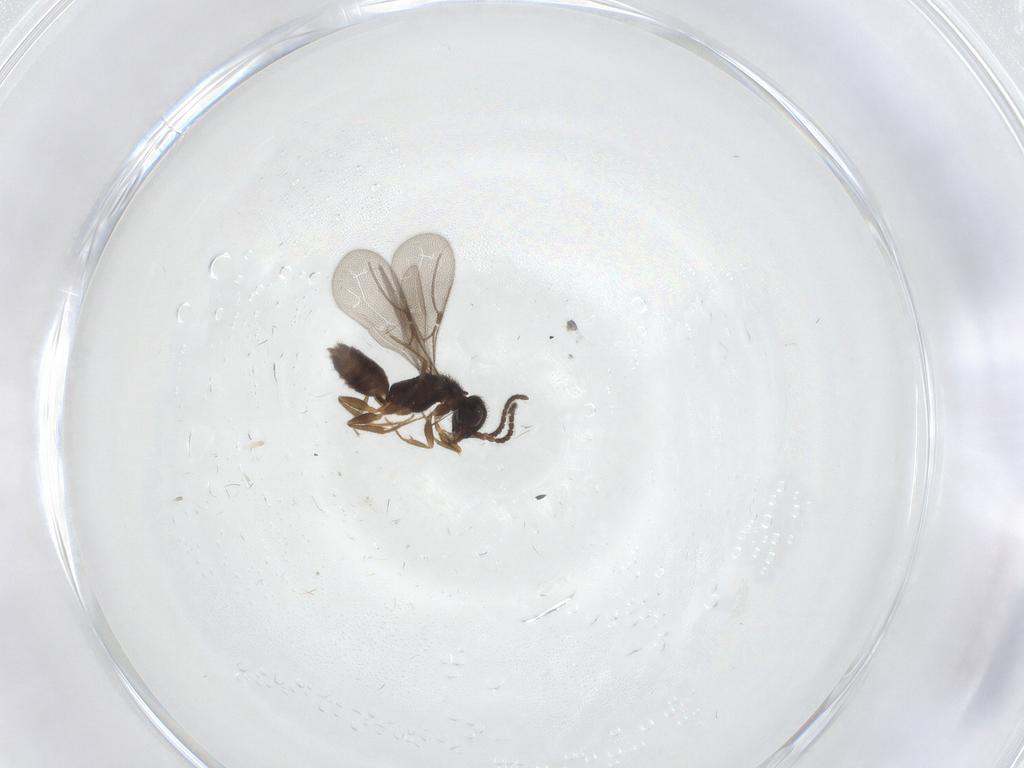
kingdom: Animalia
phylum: Arthropoda
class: Insecta
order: Hymenoptera
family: Bethylidae
